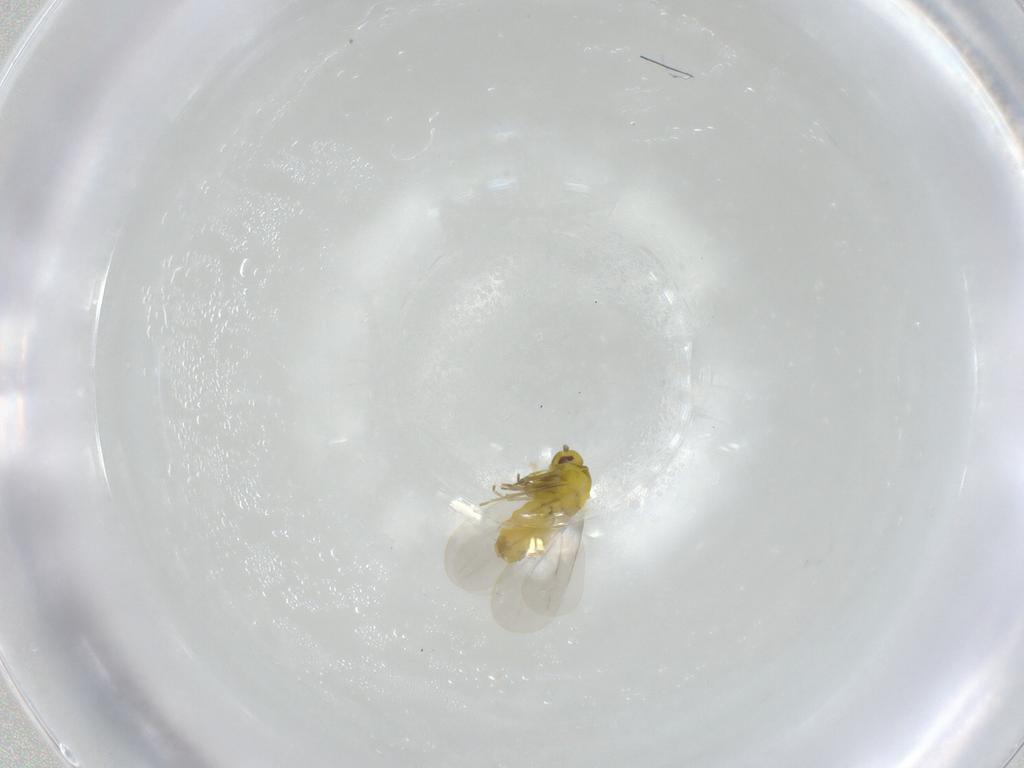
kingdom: Animalia
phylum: Arthropoda
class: Insecta
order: Hemiptera
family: Aleyrodidae
